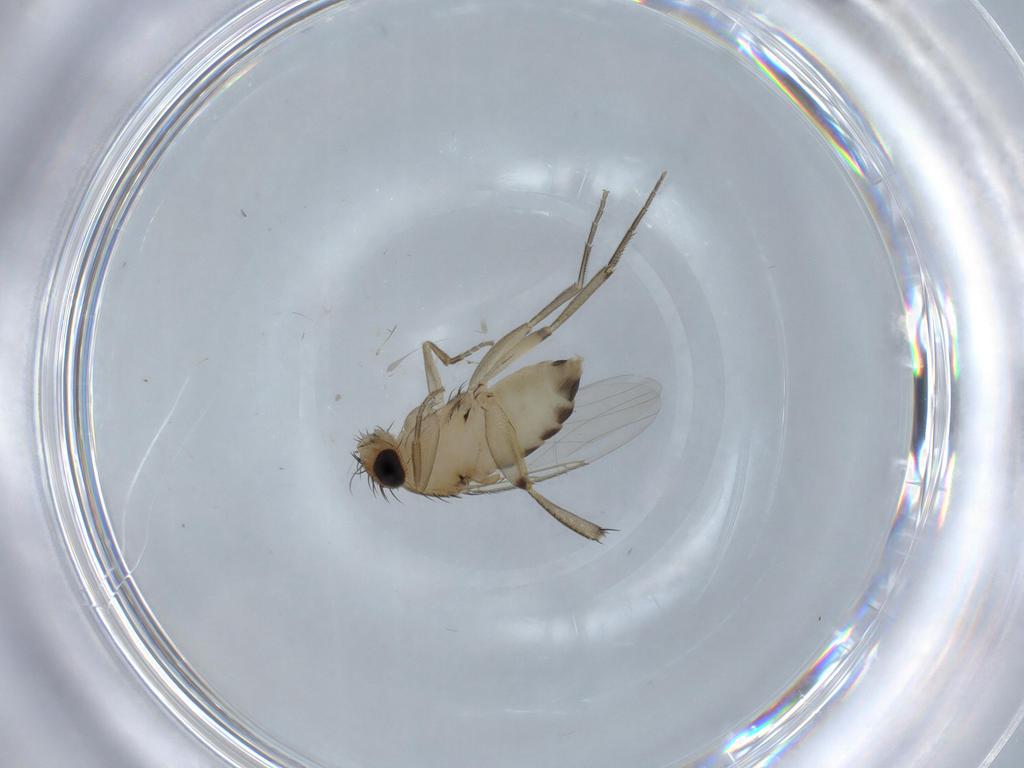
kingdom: Animalia
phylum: Arthropoda
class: Insecta
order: Diptera
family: Phoridae
